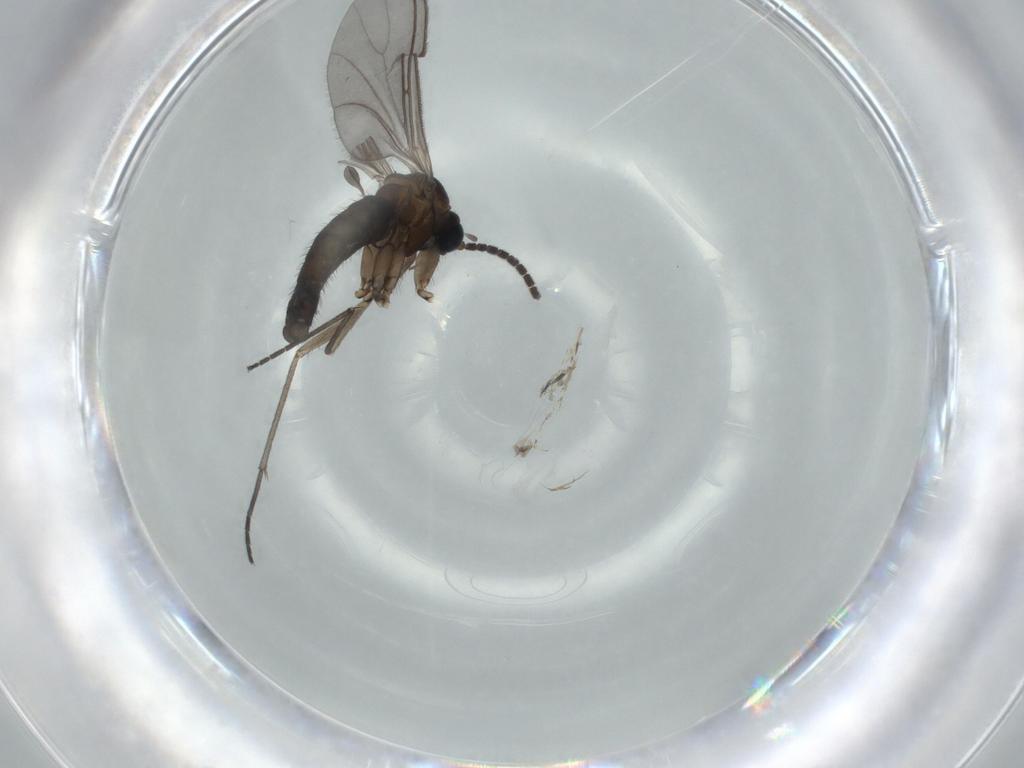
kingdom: Animalia
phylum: Arthropoda
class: Insecta
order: Diptera
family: Sciaridae
